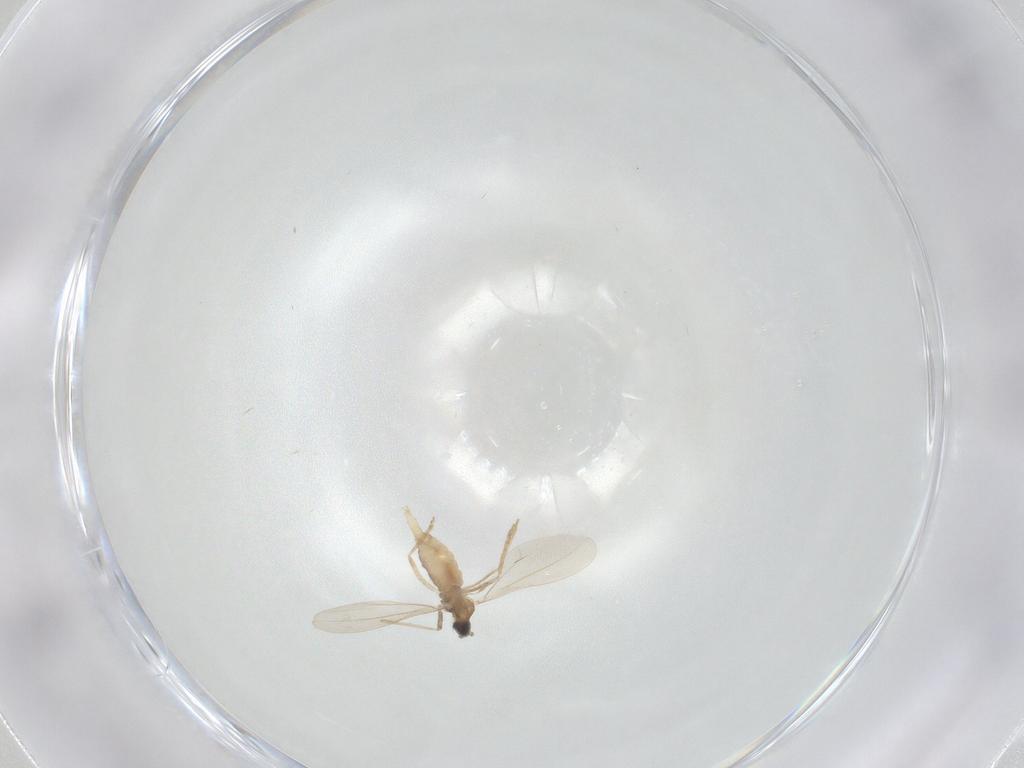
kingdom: Animalia
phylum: Arthropoda
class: Insecta
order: Diptera
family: Cecidomyiidae
